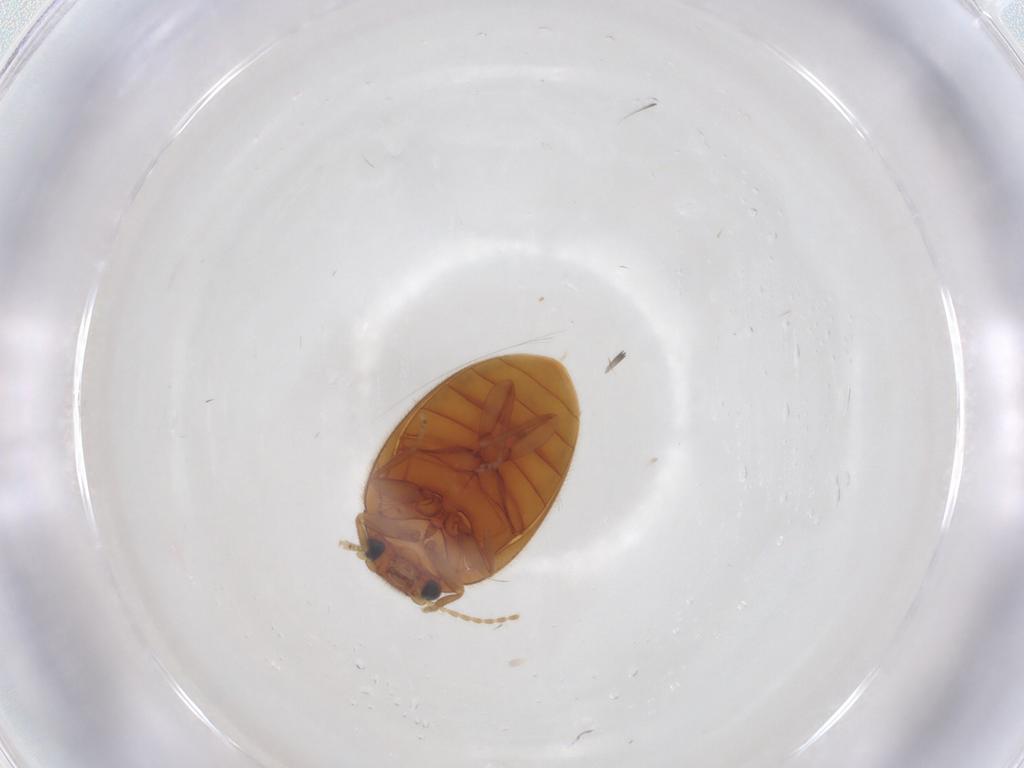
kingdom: Animalia
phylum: Arthropoda
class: Insecta
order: Coleoptera
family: Scirtidae
